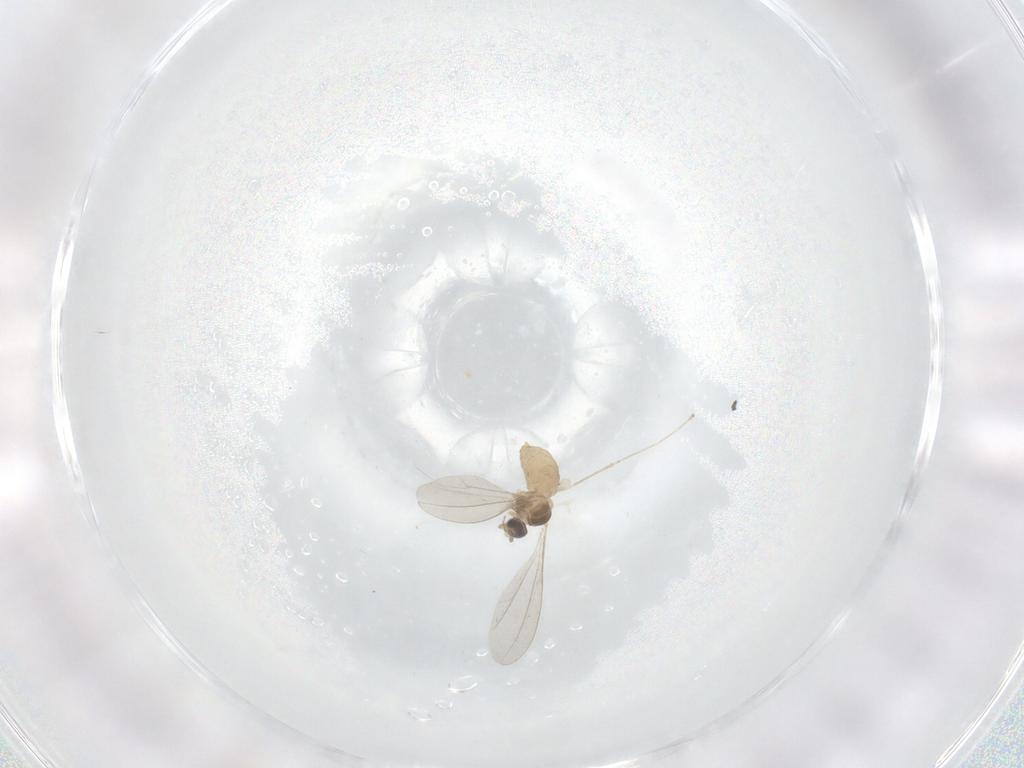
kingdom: Animalia
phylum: Arthropoda
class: Insecta
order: Diptera
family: Cecidomyiidae
